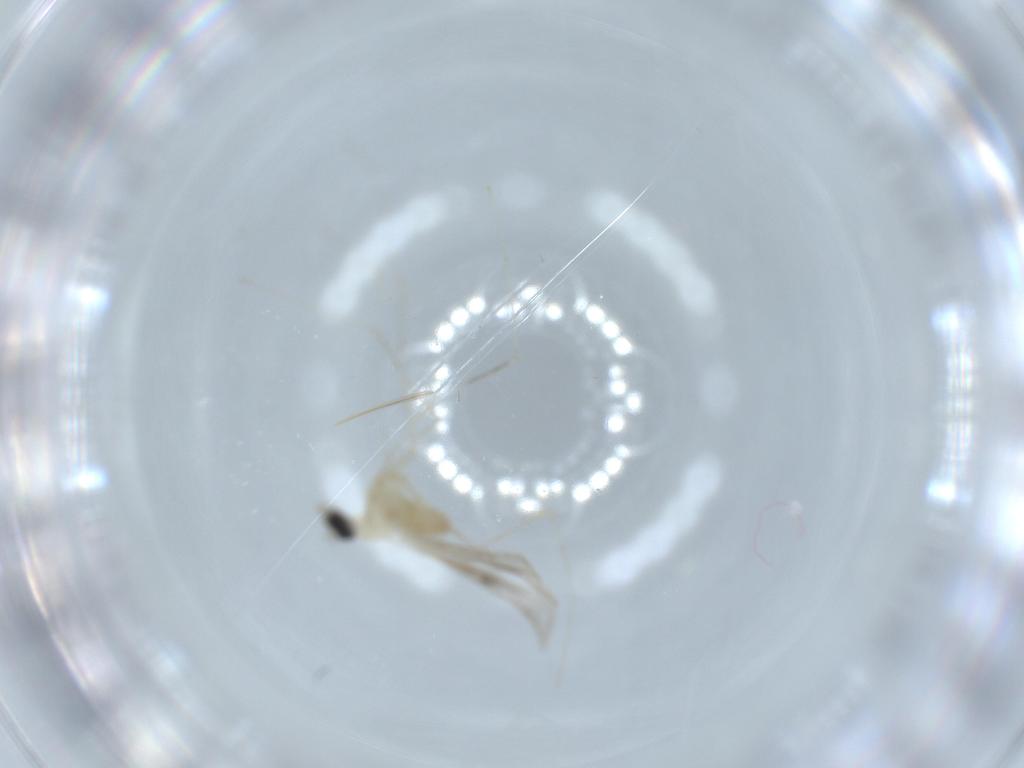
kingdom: Animalia
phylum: Arthropoda
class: Insecta
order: Diptera
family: Cecidomyiidae
